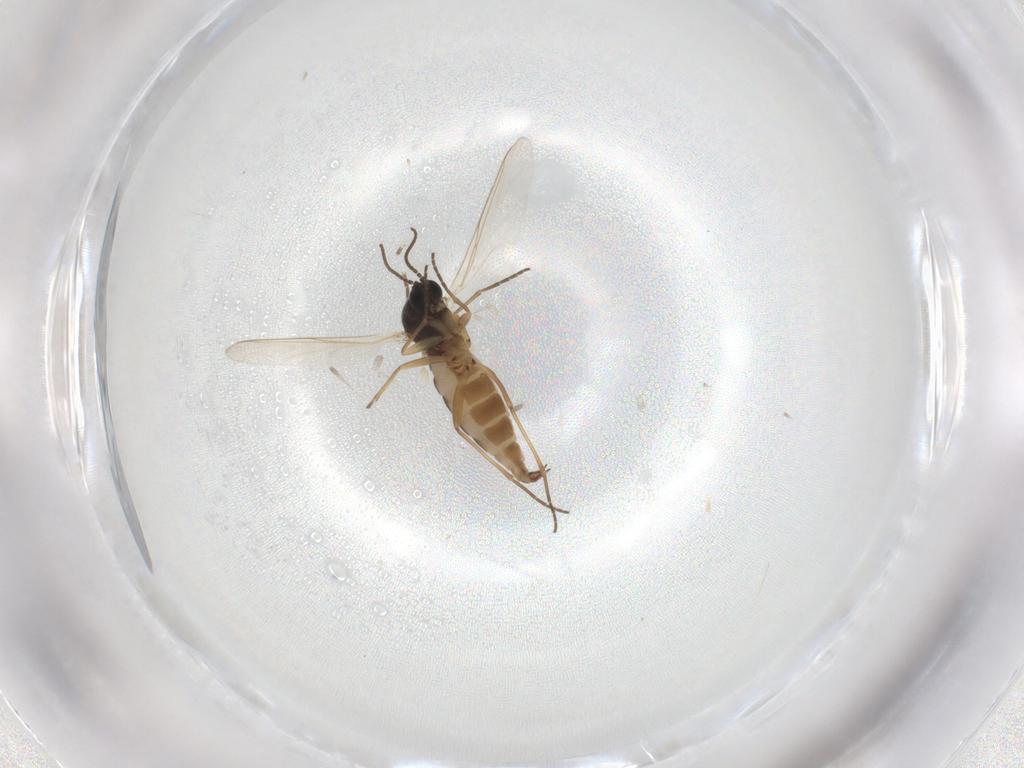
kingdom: Animalia
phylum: Arthropoda
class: Insecta
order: Diptera
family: Sciaridae
